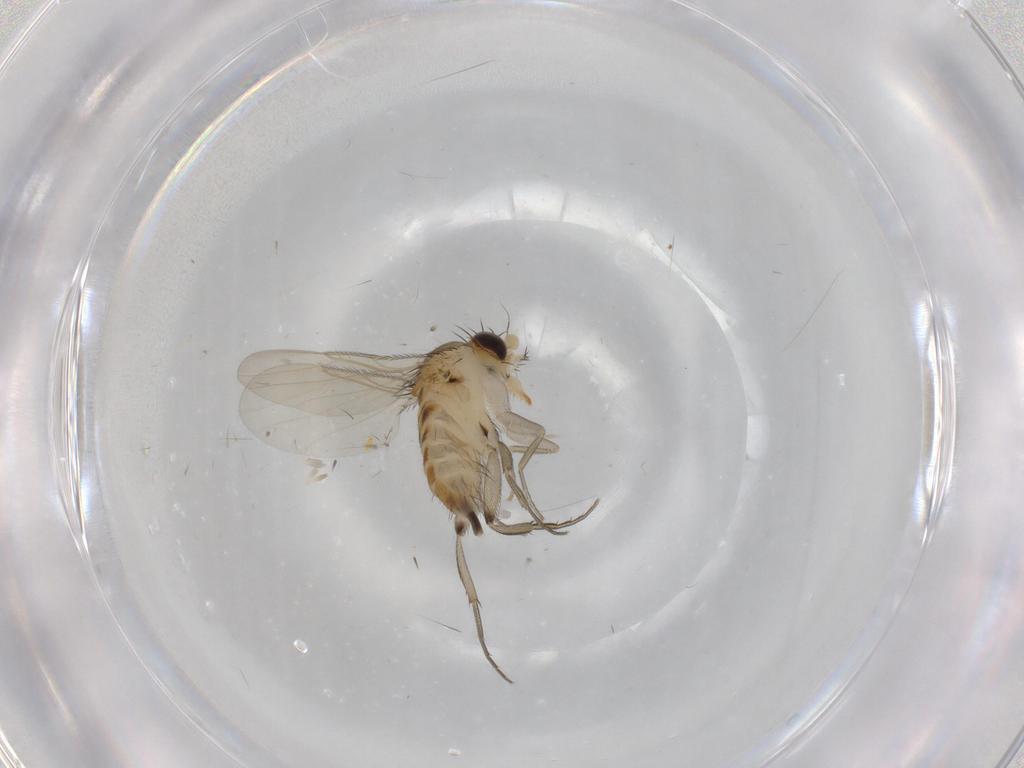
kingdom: Animalia
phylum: Arthropoda
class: Insecta
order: Diptera
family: Phoridae
